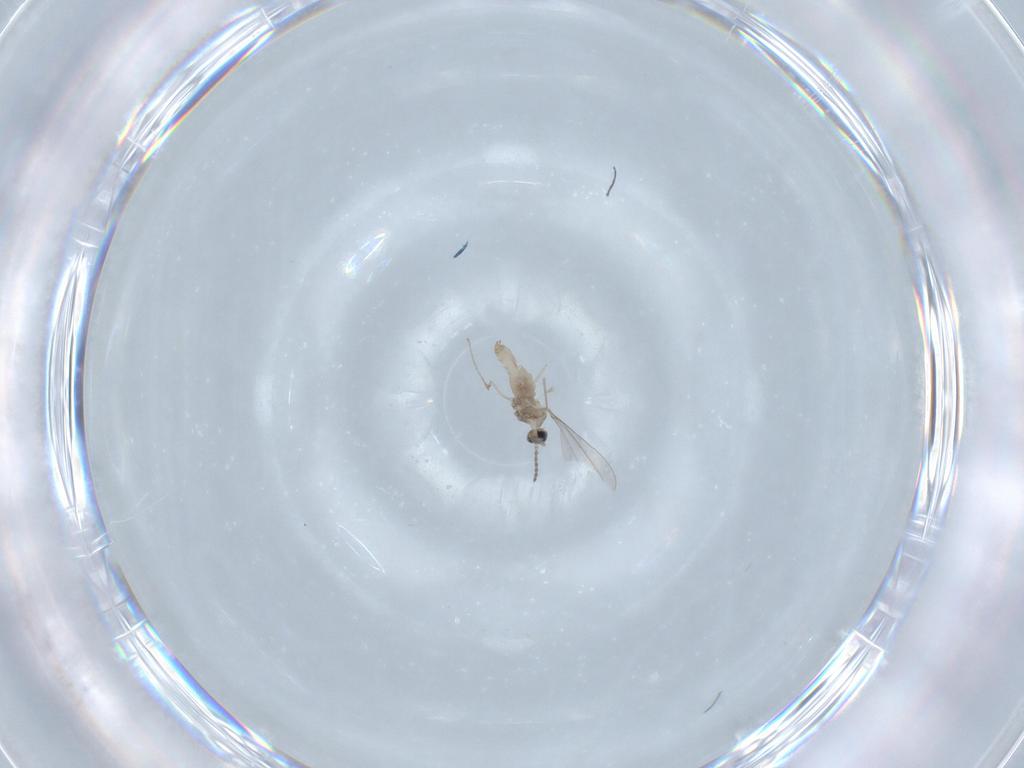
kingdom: Animalia
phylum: Arthropoda
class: Insecta
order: Diptera
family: Cecidomyiidae
